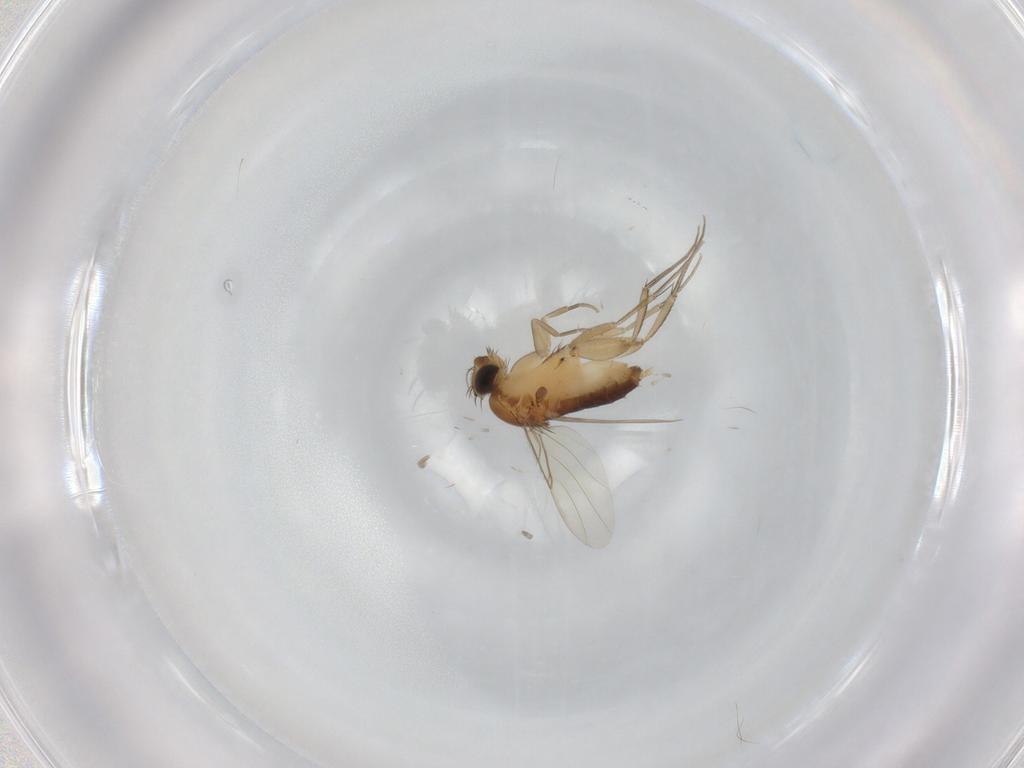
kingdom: Animalia
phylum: Arthropoda
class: Insecta
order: Diptera
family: Phoridae
